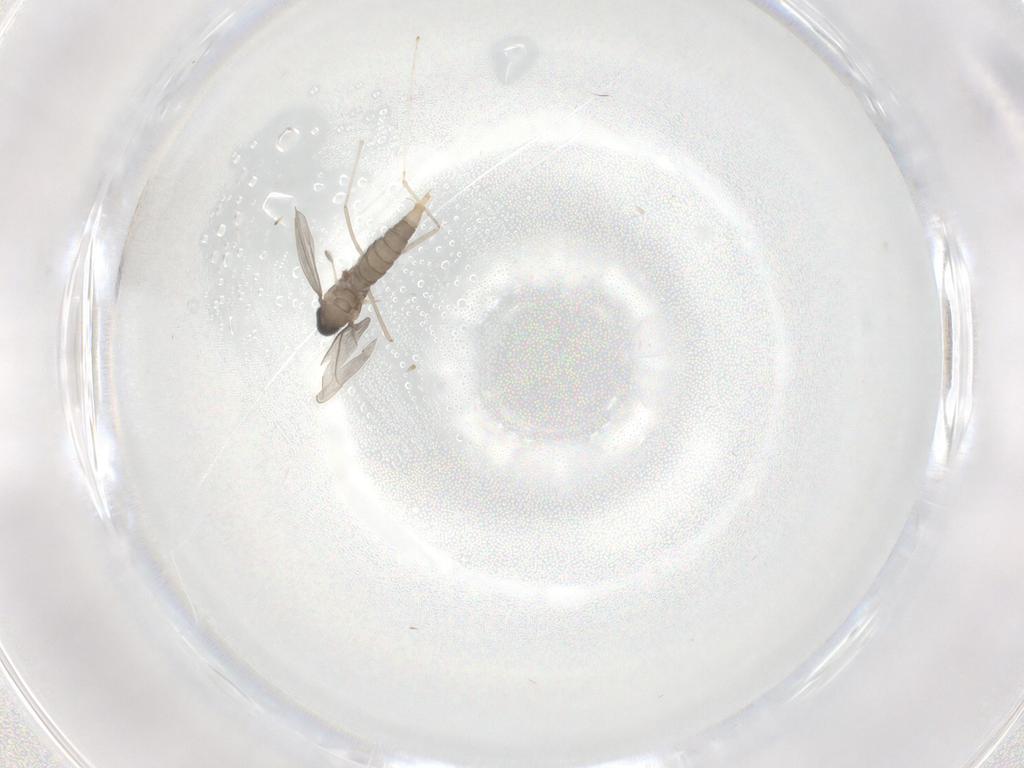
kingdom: Animalia
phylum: Arthropoda
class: Insecta
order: Diptera
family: Cecidomyiidae
